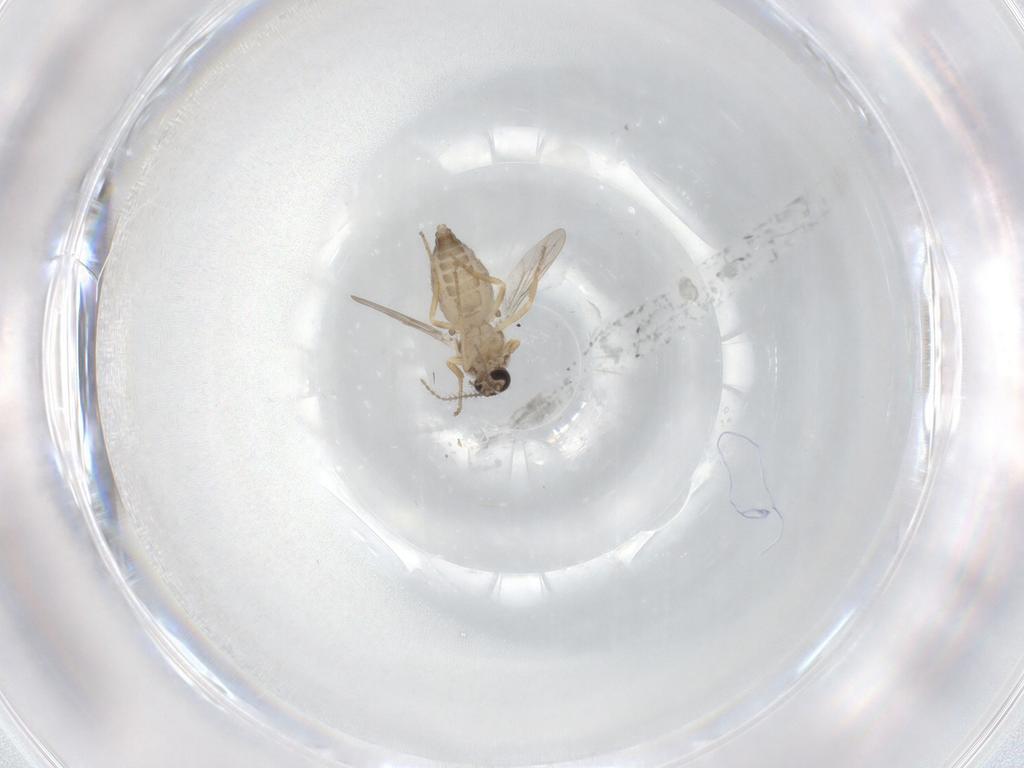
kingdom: Animalia
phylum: Arthropoda
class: Insecta
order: Diptera
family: Ceratopogonidae
